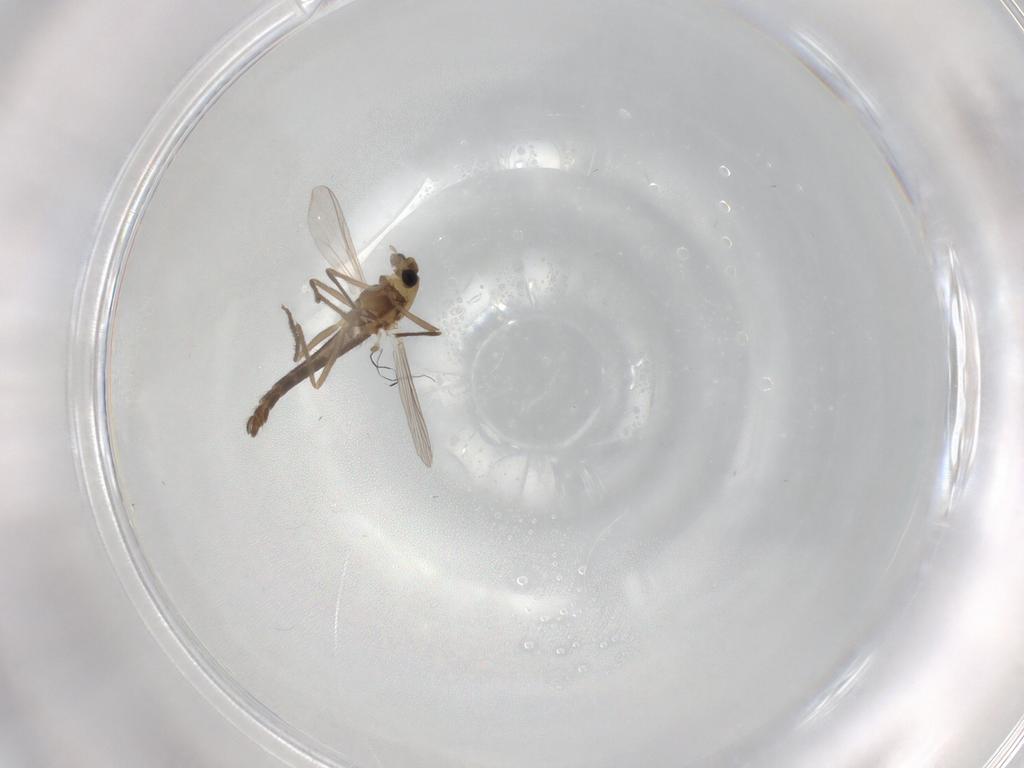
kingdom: Animalia
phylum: Arthropoda
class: Insecta
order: Diptera
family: Chironomidae
